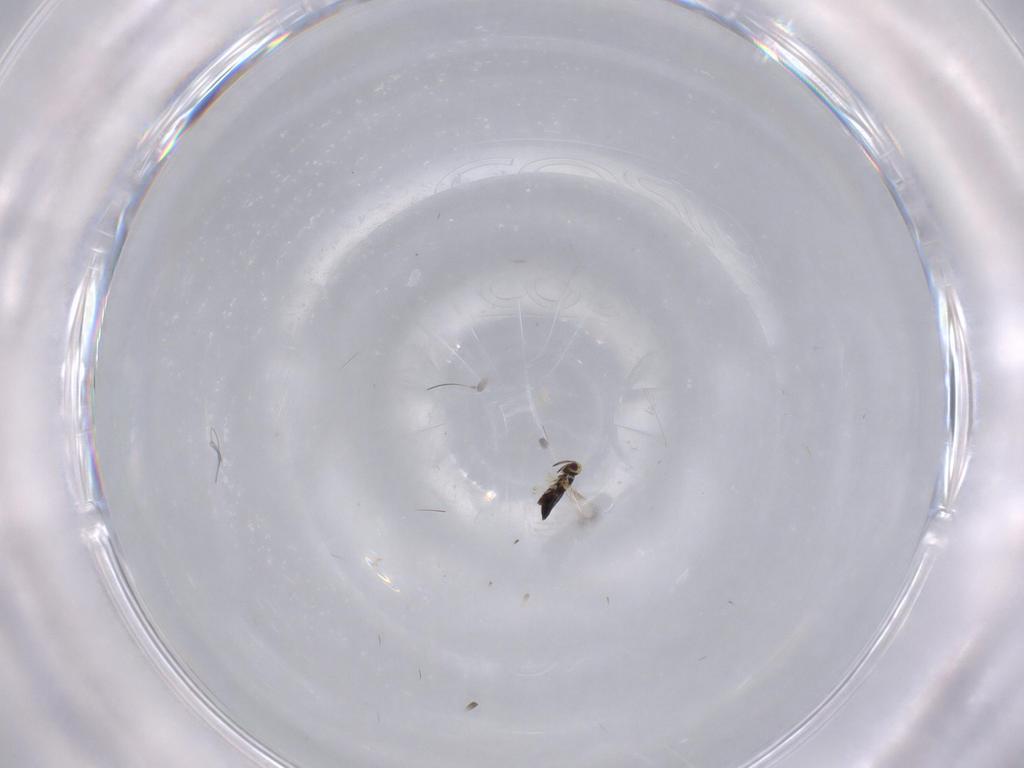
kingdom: Animalia
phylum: Arthropoda
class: Insecta
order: Hymenoptera
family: Signiphoridae
